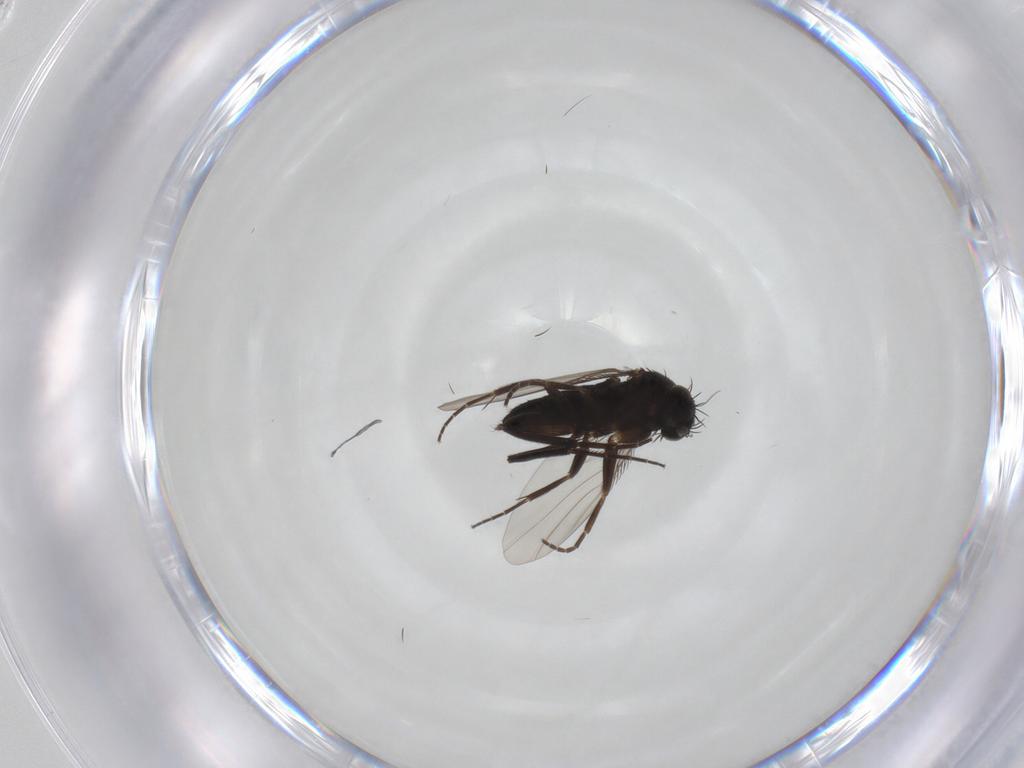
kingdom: Animalia
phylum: Arthropoda
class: Insecta
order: Diptera
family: Phoridae
